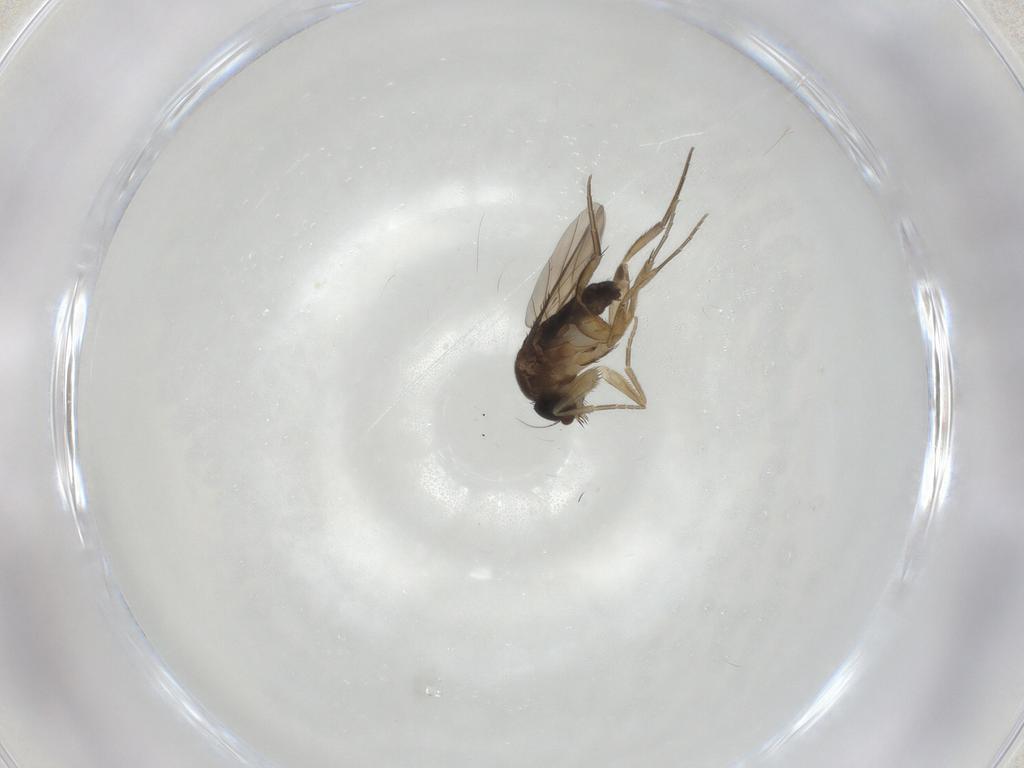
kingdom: Animalia
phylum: Arthropoda
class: Insecta
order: Diptera
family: Phoridae
